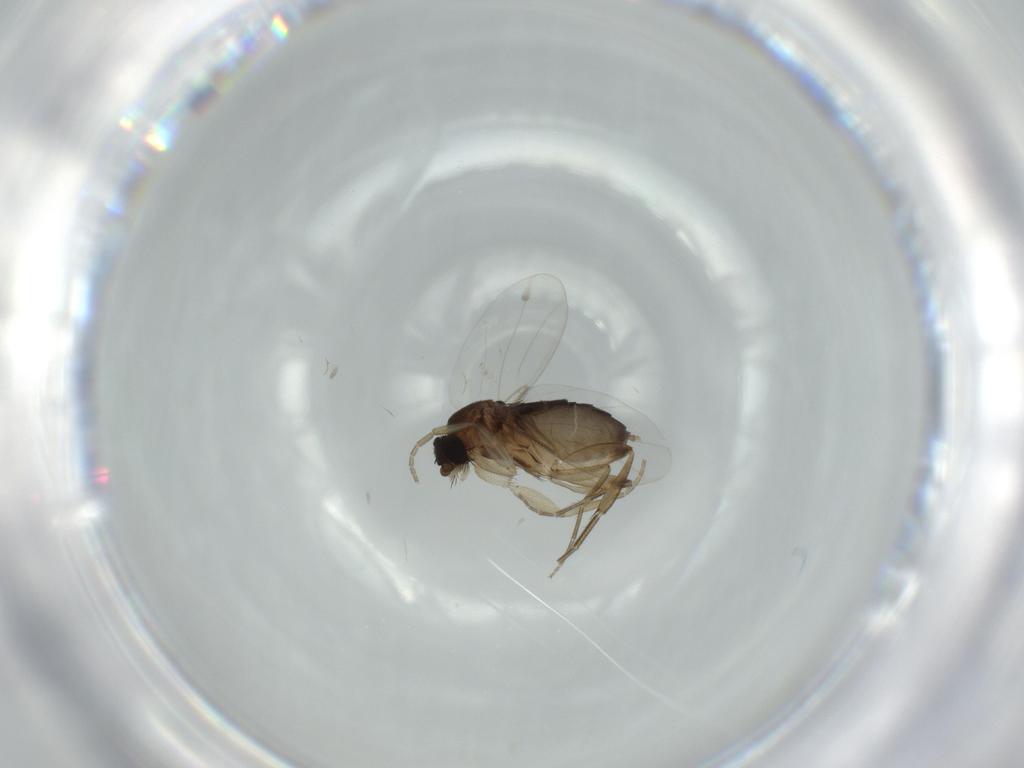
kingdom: Animalia
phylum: Arthropoda
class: Insecta
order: Diptera
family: Phoridae
